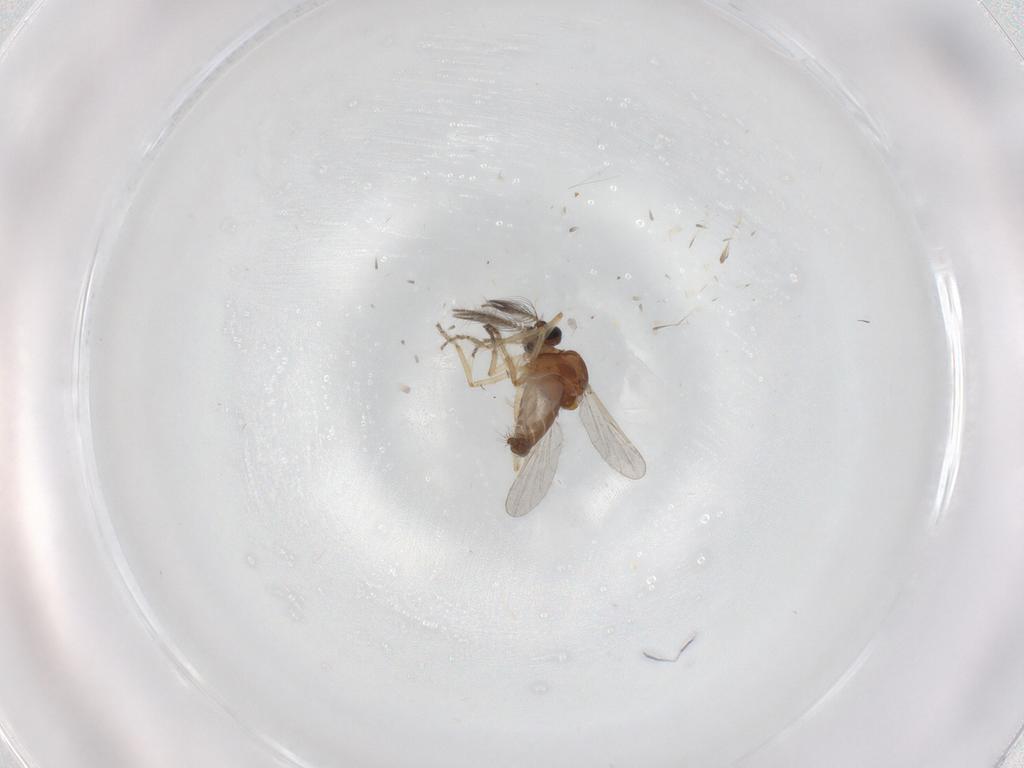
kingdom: Animalia
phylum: Arthropoda
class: Insecta
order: Diptera
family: Ceratopogonidae
